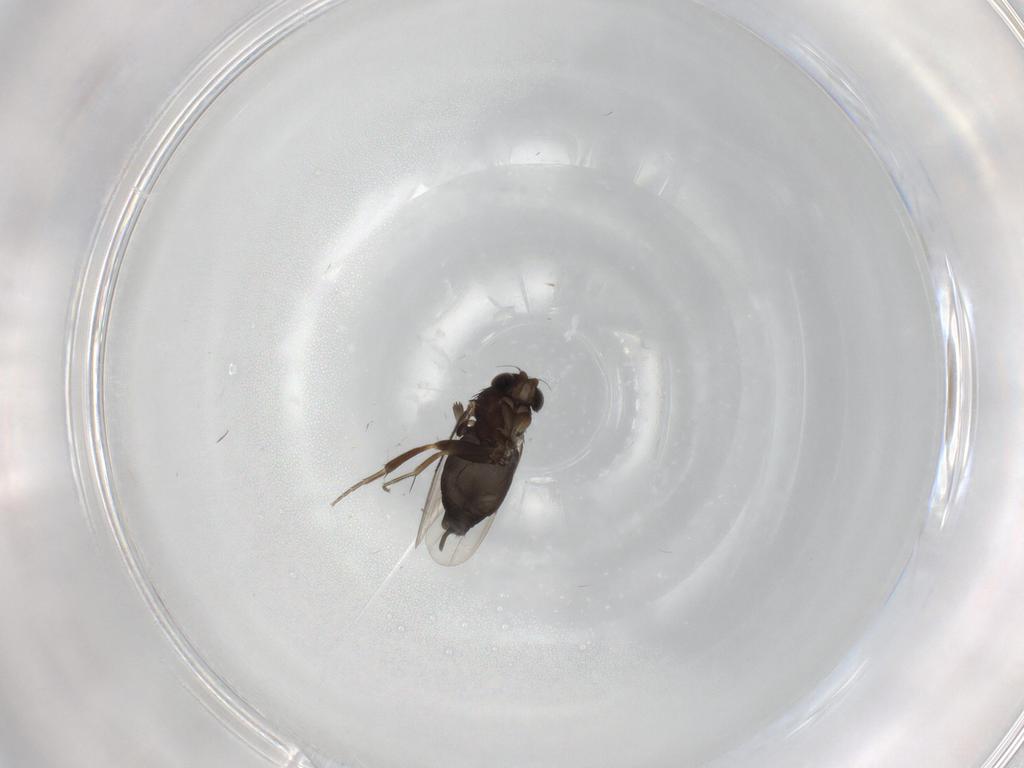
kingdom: Animalia
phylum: Arthropoda
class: Insecta
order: Diptera
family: Phoridae
